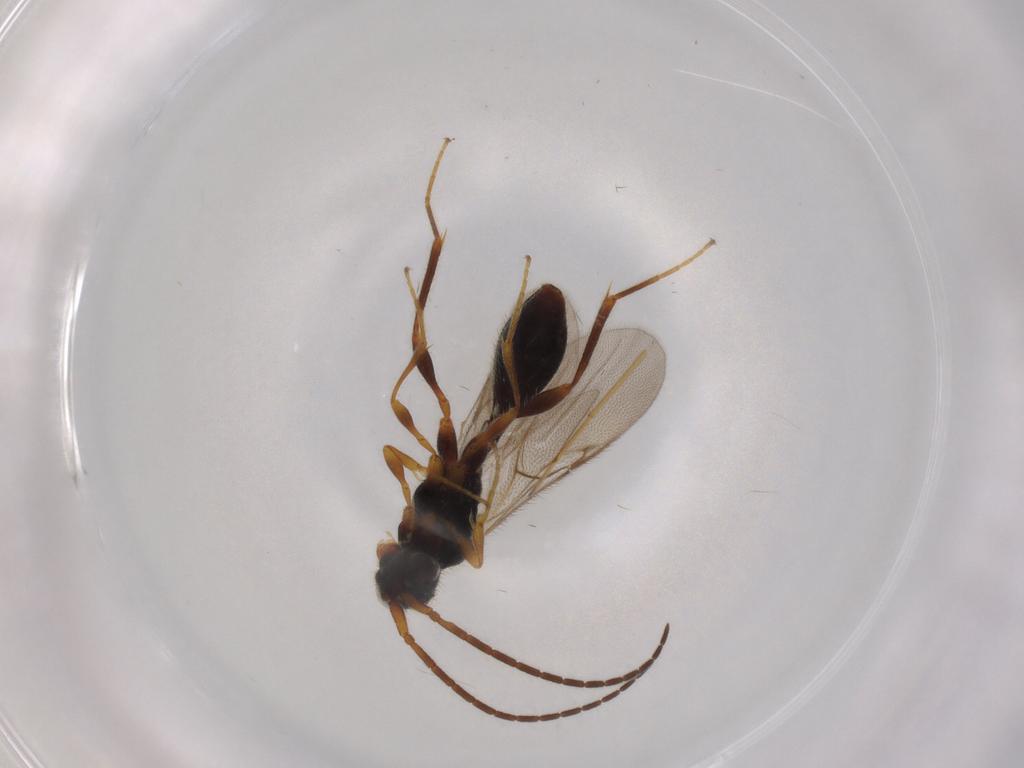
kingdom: Animalia
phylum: Arthropoda
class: Insecta
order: Hymenoptera
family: Diapriidae
